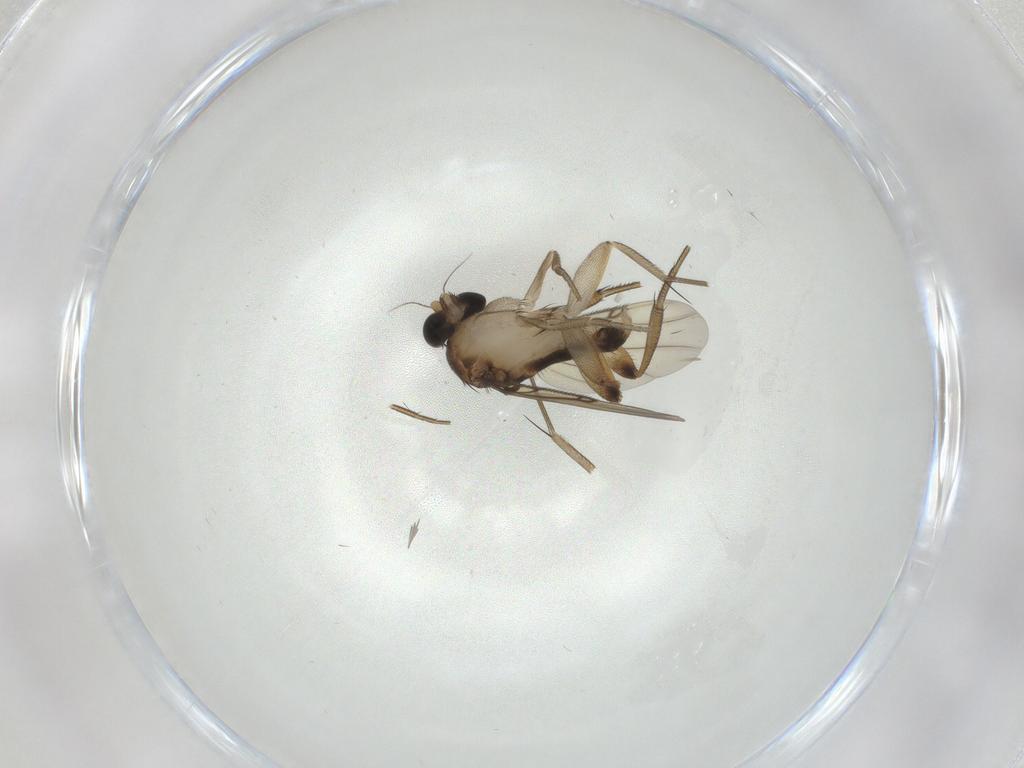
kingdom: Animalia
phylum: Arthropoda
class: Insecta
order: Diptera
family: Phoridae
